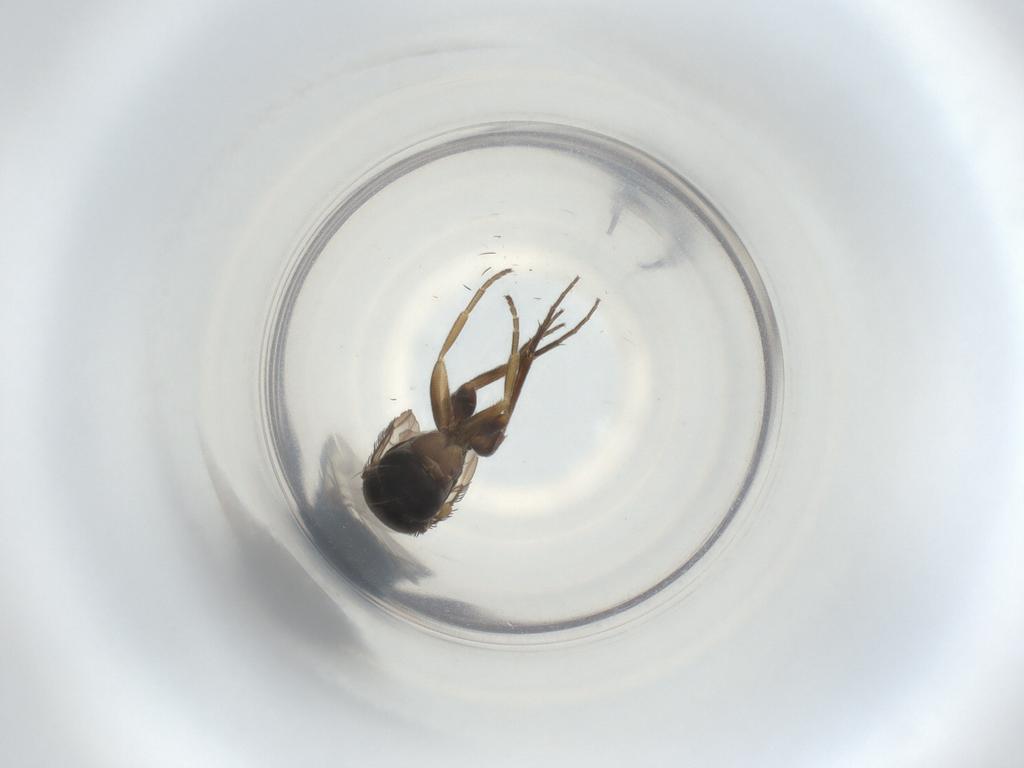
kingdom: Animalia
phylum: Arthropoda
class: Insecta
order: Diptera
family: Phoridae
